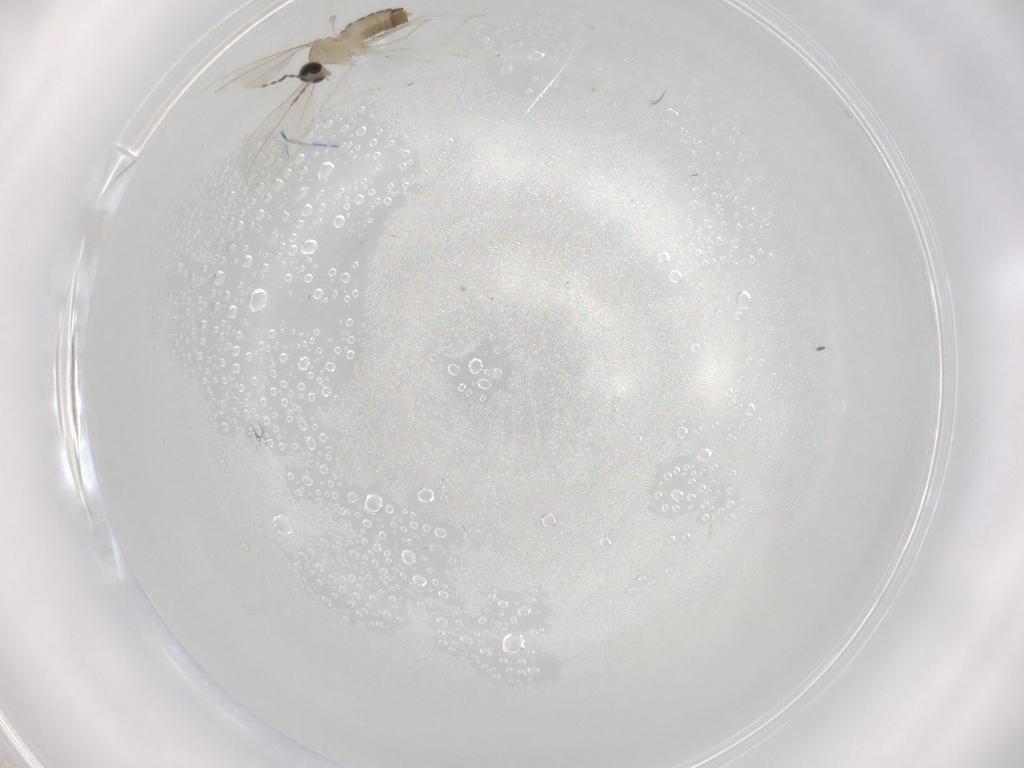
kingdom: Animalia
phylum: Arthropoda
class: Insecta
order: Diptera
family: Cecidomyiidae
